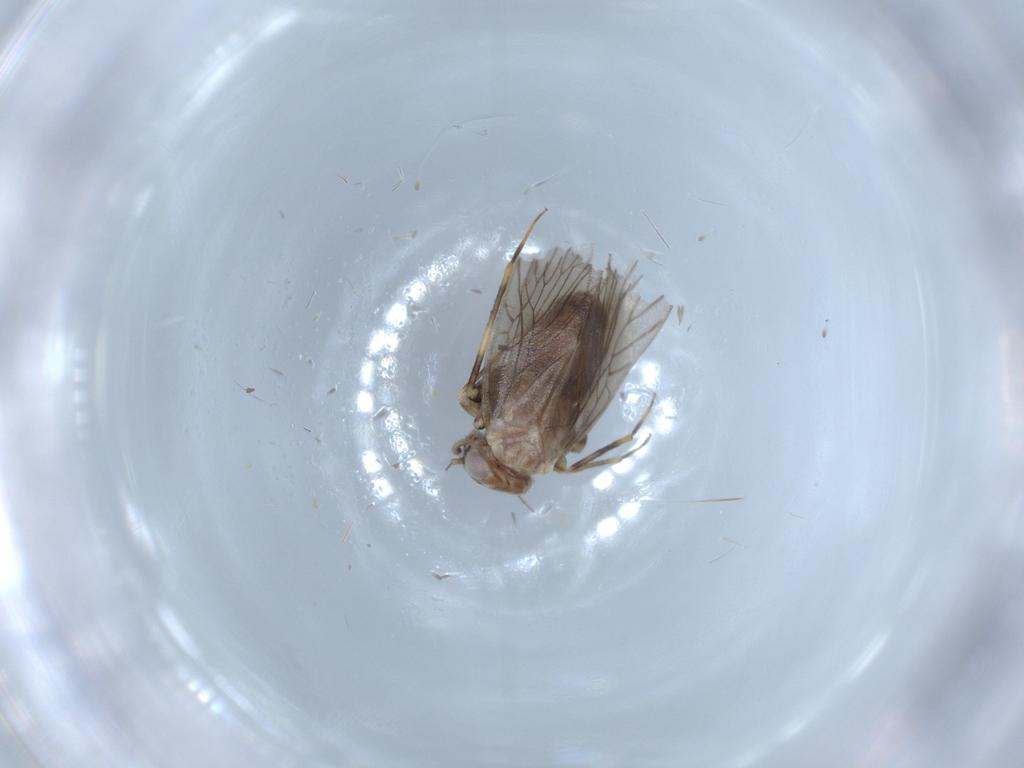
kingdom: Animalia
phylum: Arthropoda
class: Insecta
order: Psocodea
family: Lepidopsocidae
